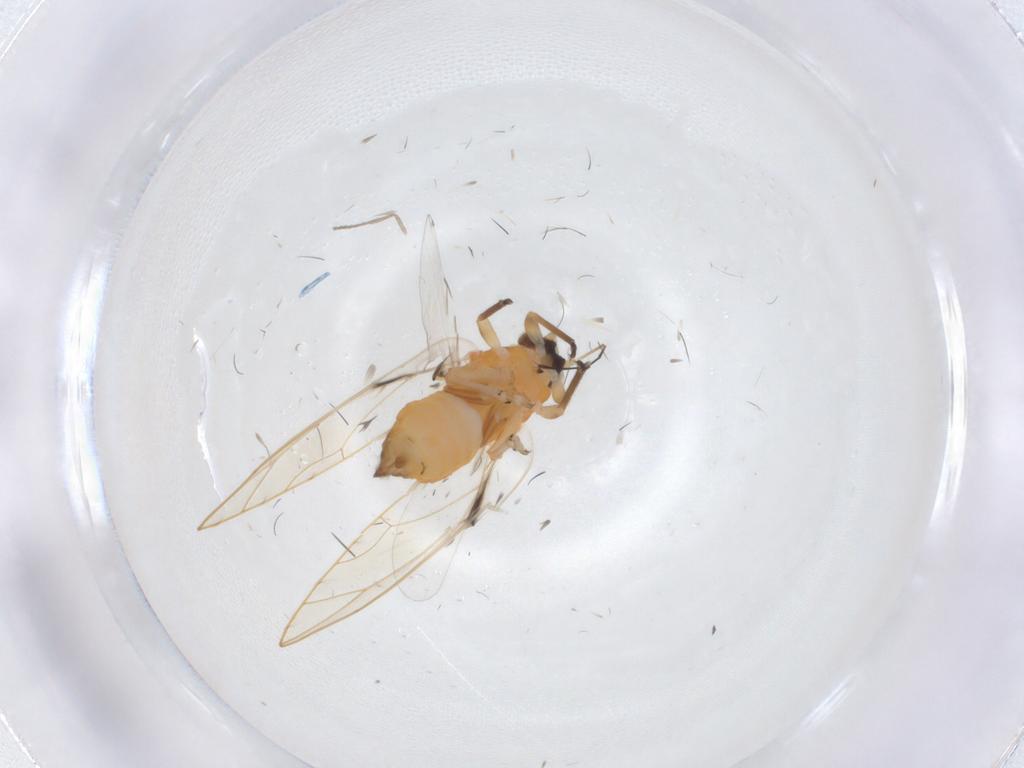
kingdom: Animalia
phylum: Arthropoda
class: Insecta
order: Hemiptera
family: Psylloidea_incertae_sedis
